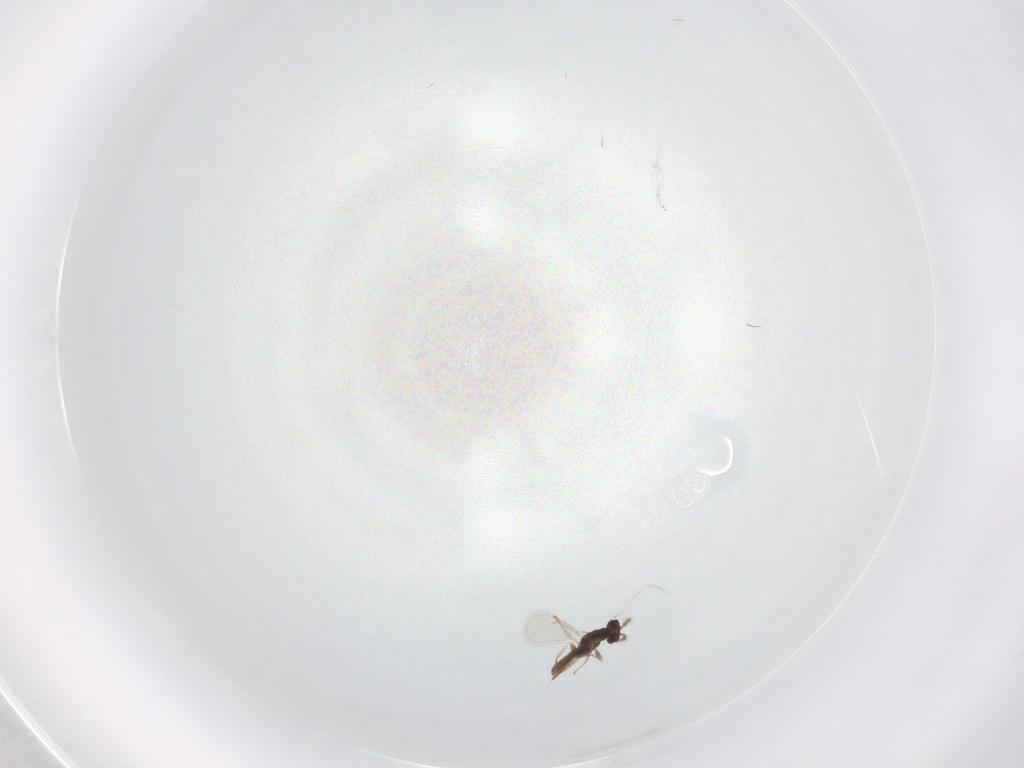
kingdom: Animalia
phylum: Arthropoda
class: Insecta
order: Hymenoptera
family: Eulophidae
